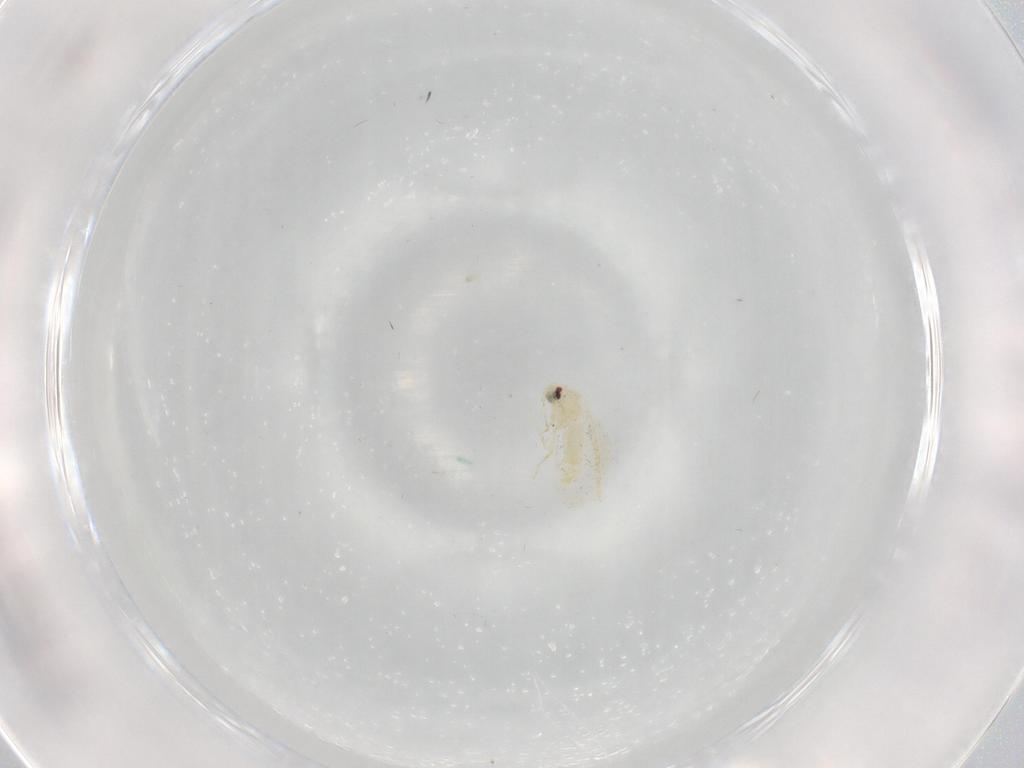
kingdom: Animalia
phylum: Arthropoda
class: Insecta
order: Hemiptera
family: Aleyrodidae
